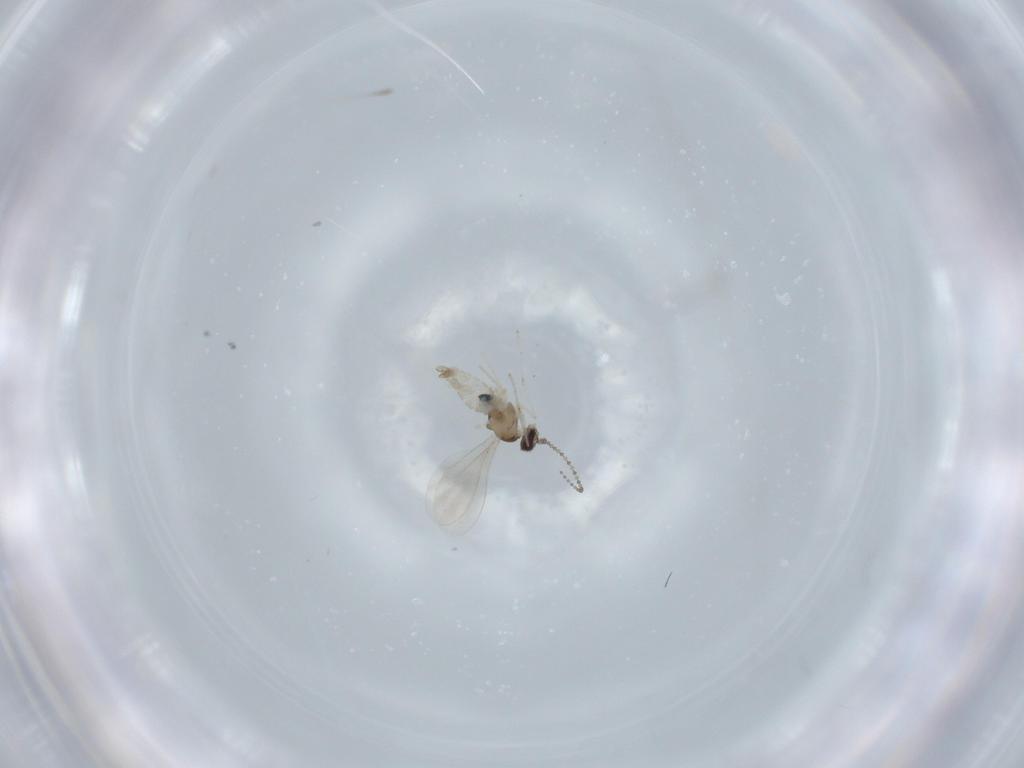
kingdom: Animalia
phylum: Arthropoda
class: Insecta
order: Diptera
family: Cecidomyiidae
